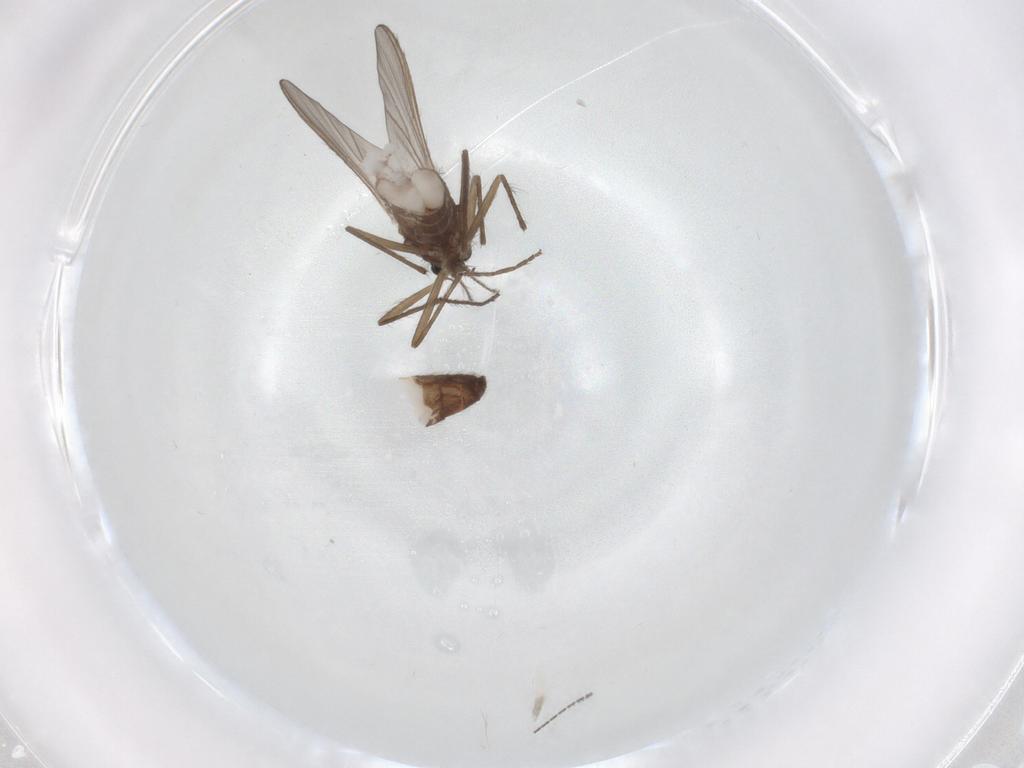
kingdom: Animalia
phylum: Arthropoda
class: Insecta
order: Diptera
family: Chironomidae
